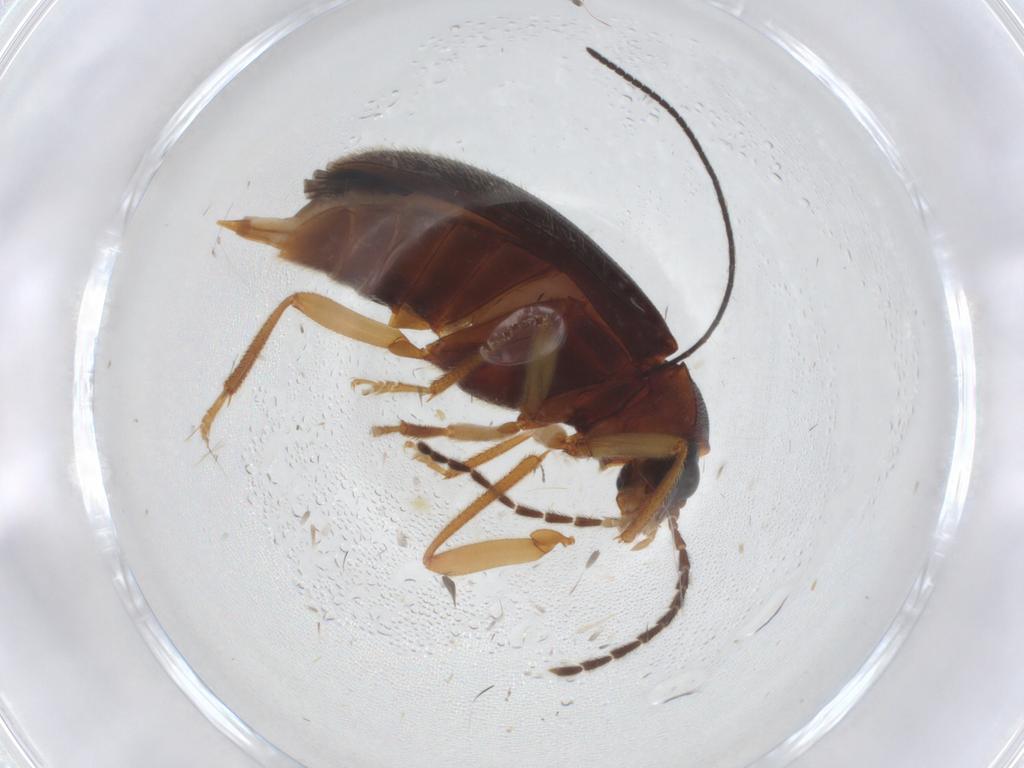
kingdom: Animalia
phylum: Arthropoda
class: Insecta
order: Coleoptera
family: Ptilodactylidae
